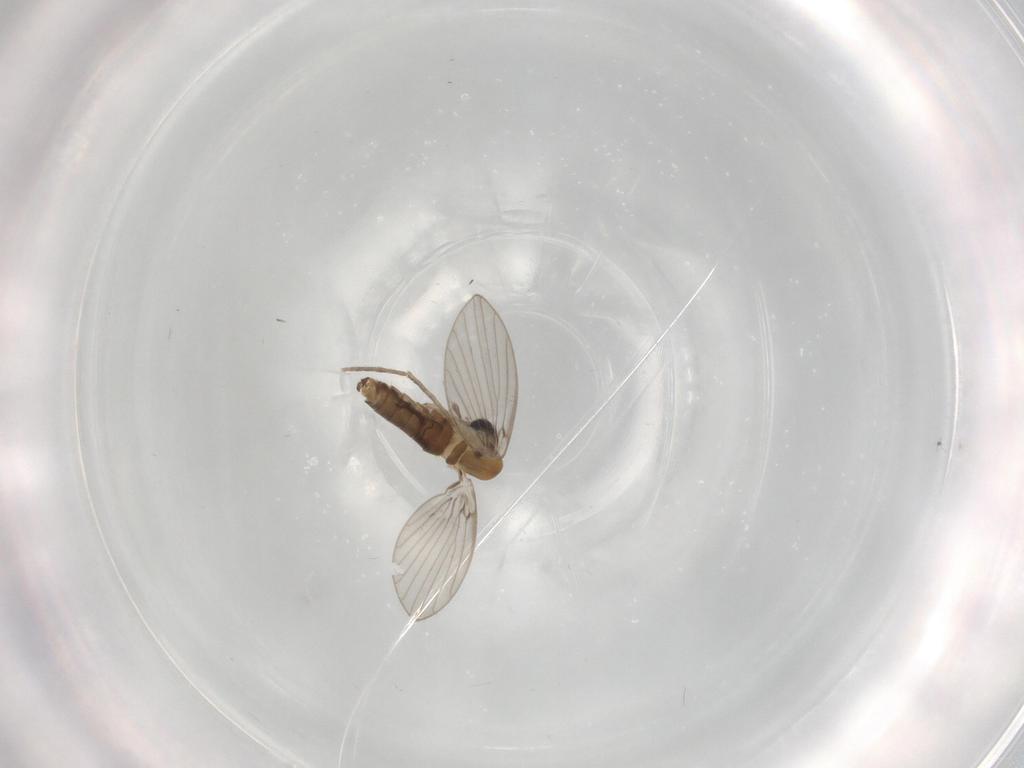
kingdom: Animalia
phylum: Arthropoda
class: Insecta
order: Diptera
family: Psychodidae
